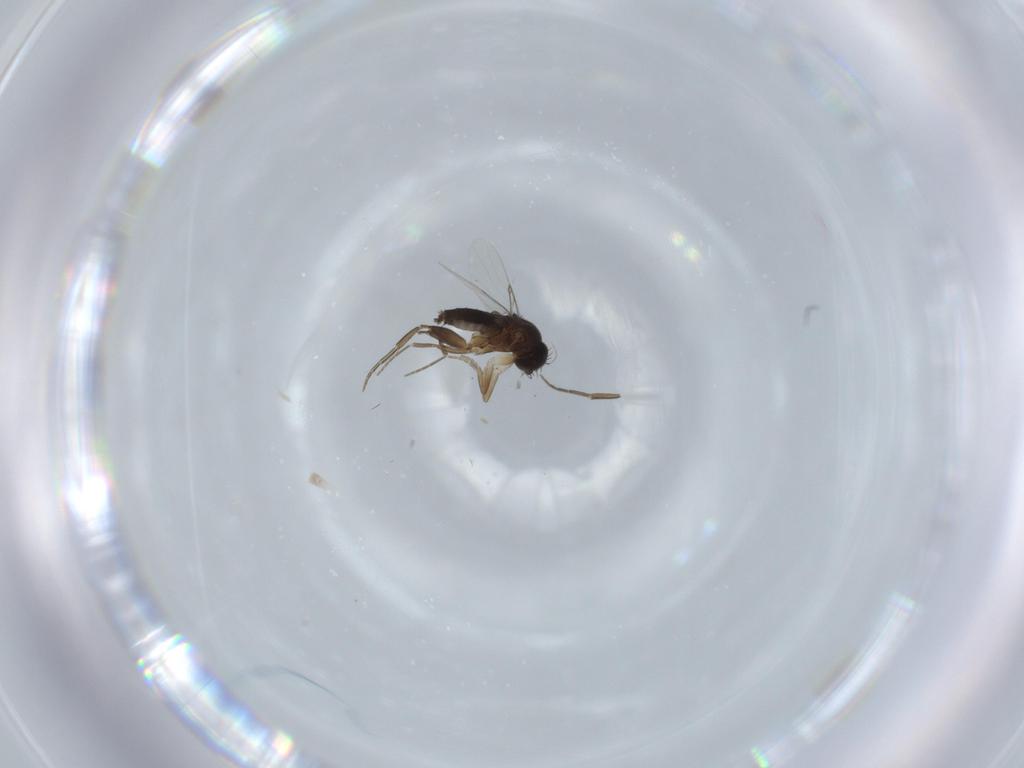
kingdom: Animalia
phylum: Arthropoda
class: Insecta
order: Diptera
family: Phoridae
